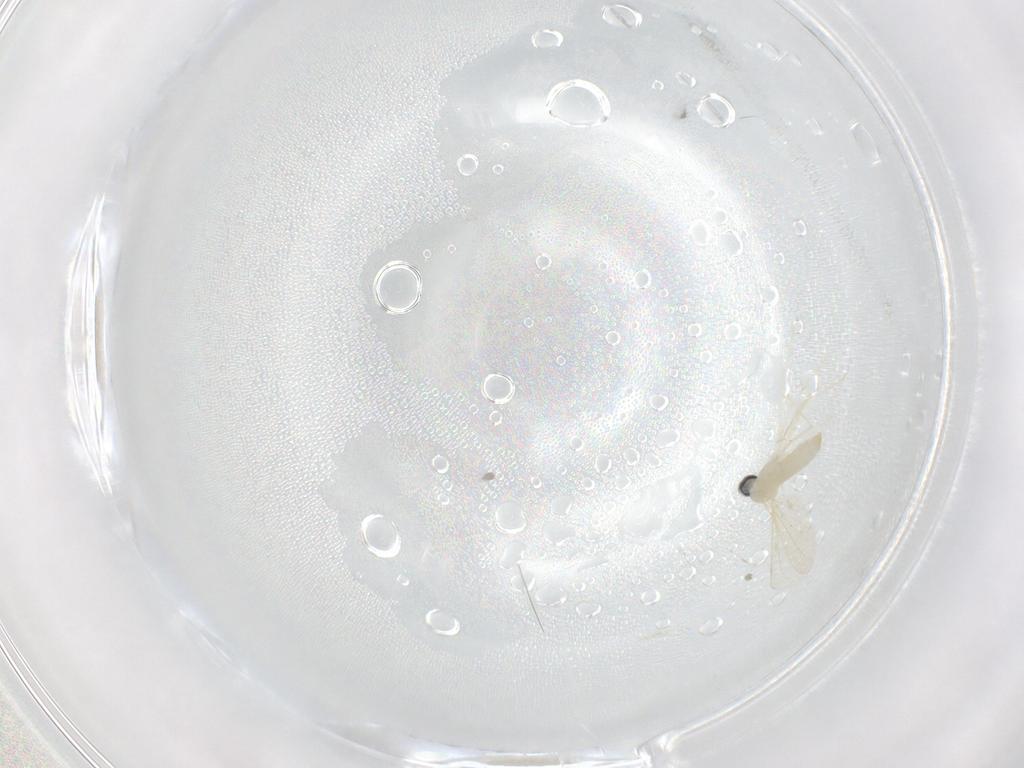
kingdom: Animalia
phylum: Arthropoda
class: Insecta
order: Diptera
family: Cecidomyiidae
